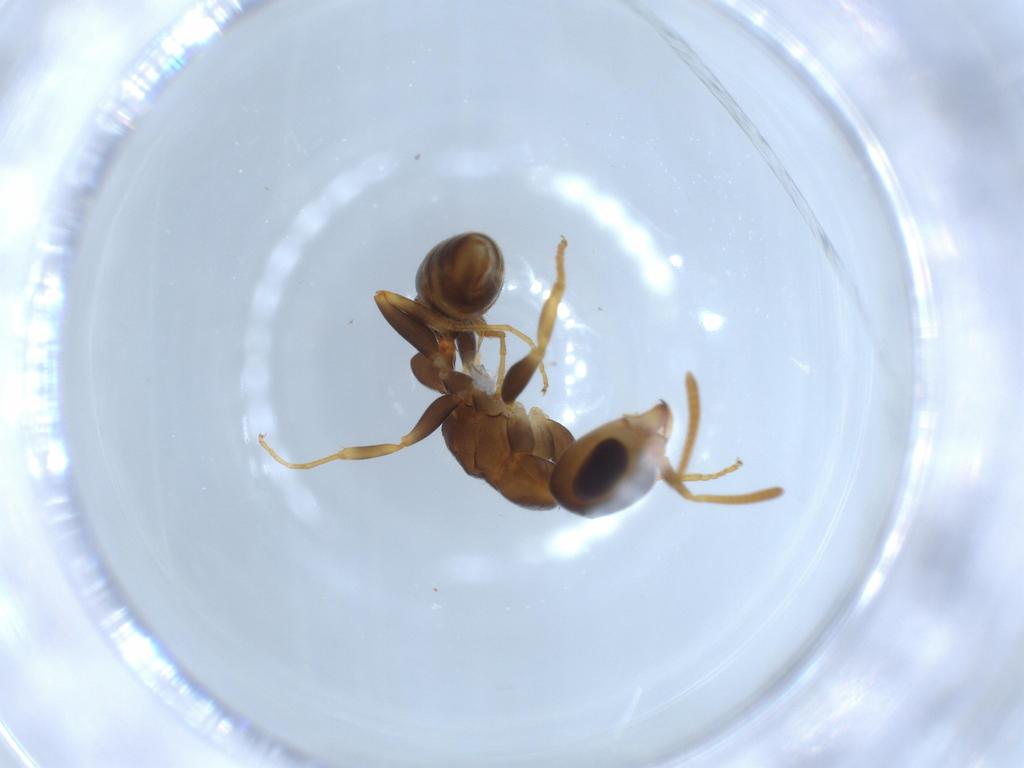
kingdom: Animalia
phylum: Arthropoda
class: Insecta
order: Hymenoptera
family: Formicidae
